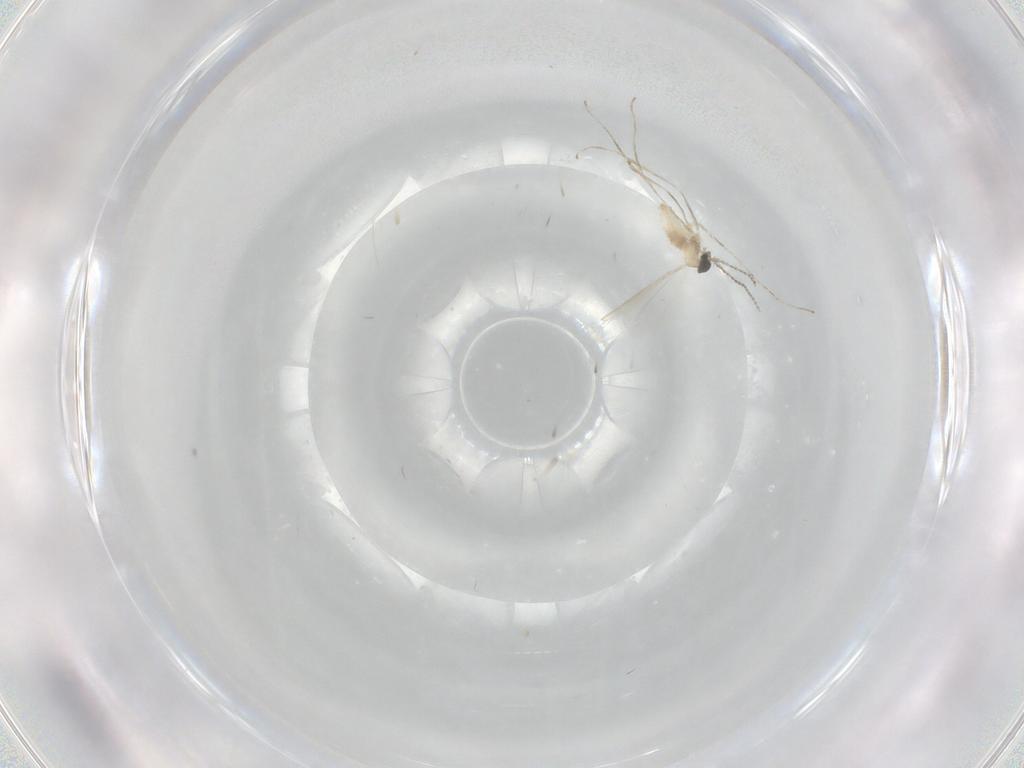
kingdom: Animalia
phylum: Arthropoda
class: Insecta
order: Diptera
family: Cecidomyiidae
